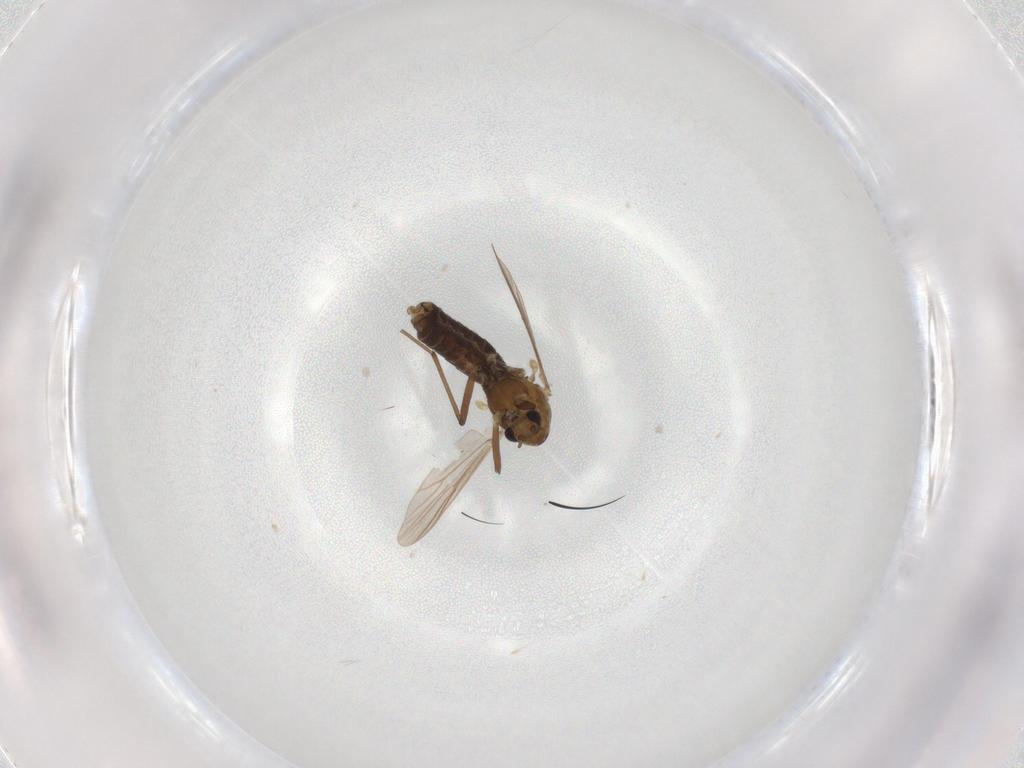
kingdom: Animalia
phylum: Arthropoda
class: Insecta
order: Diptera
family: Chironomidae
